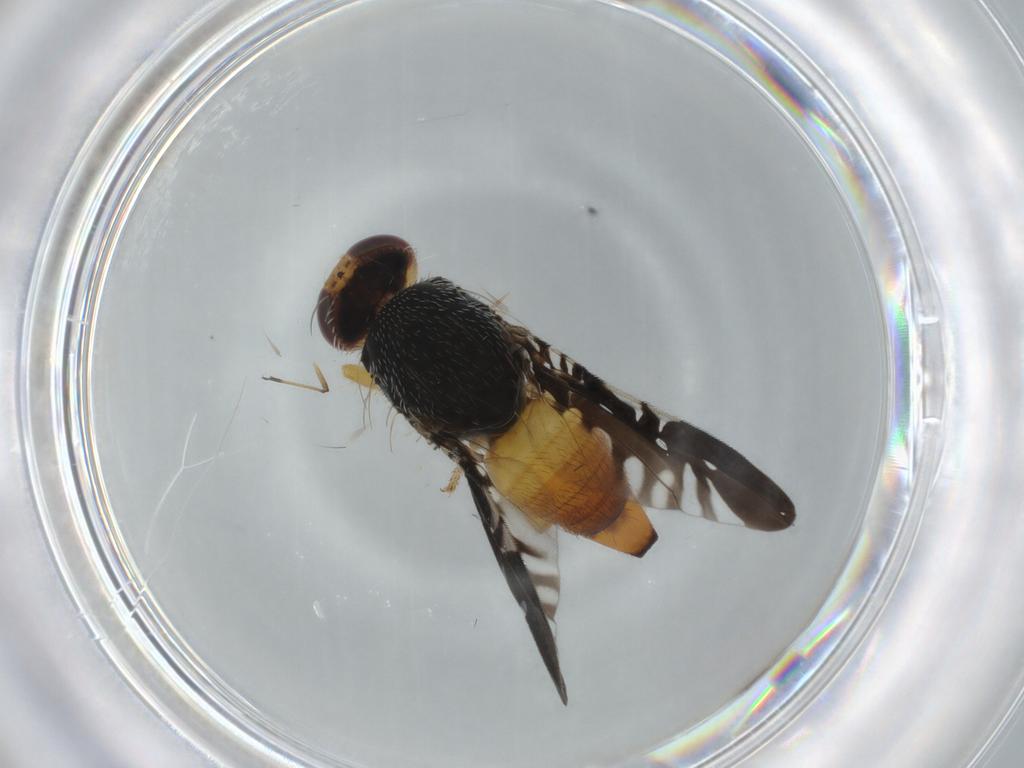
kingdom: Animalia
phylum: Arthropoda
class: Insecta
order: Diptera
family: Tephritidae
